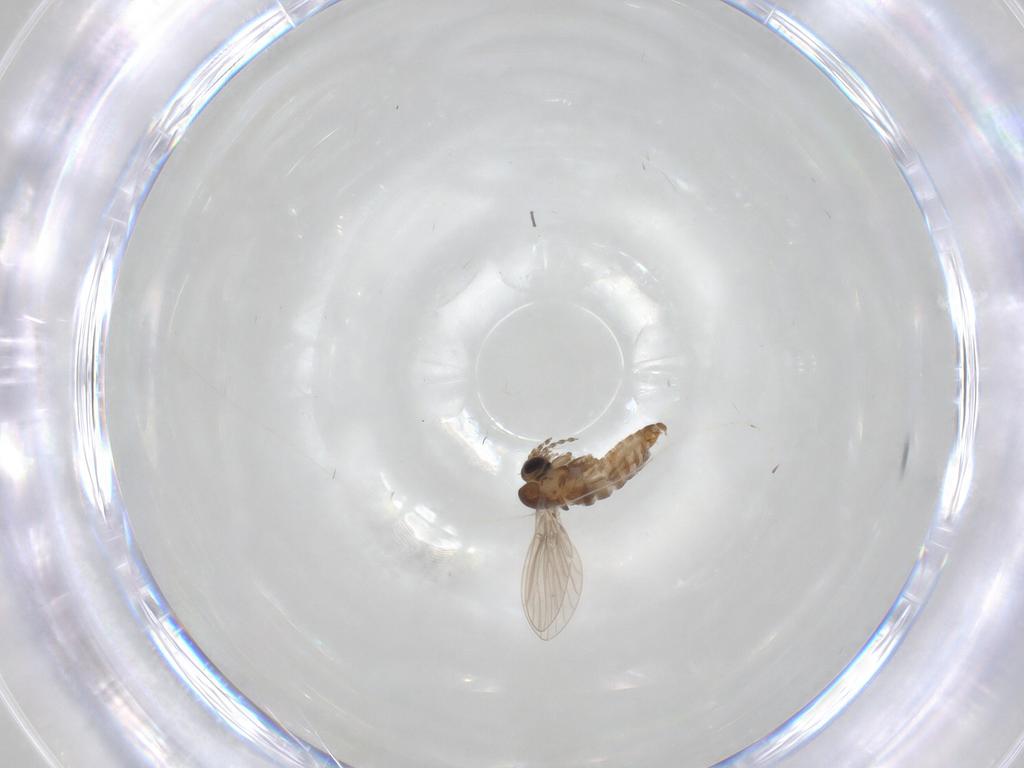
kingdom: Animalia
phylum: Arthropoda
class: Insecta
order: Diptera
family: Psychodidae
